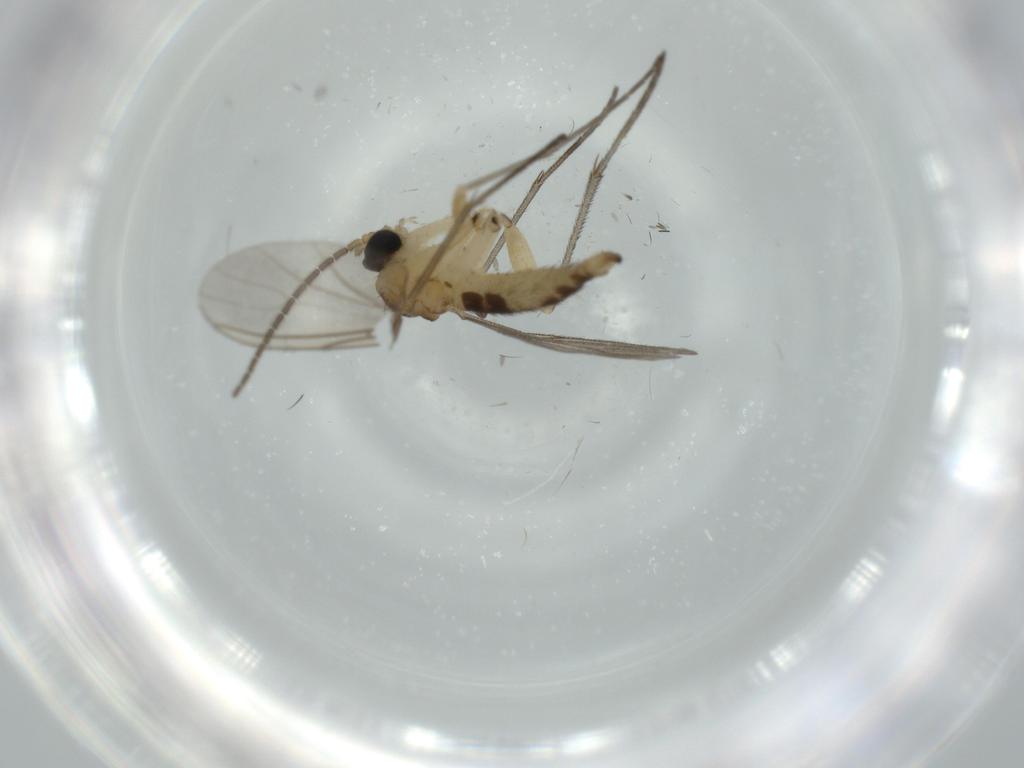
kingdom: Animalia
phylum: Arthropoda
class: Insecta
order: Diptera
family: Sciaridae
